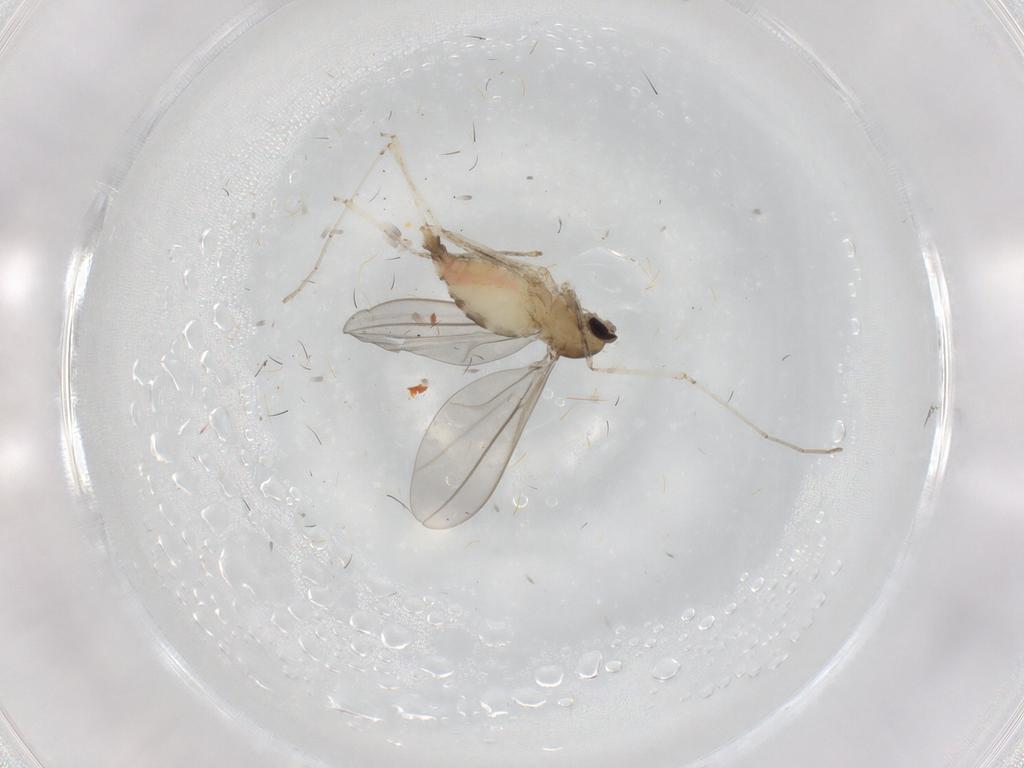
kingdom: Animalia
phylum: Arthropoda
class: Insecta
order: Diptera
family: Cecidomyiidae
